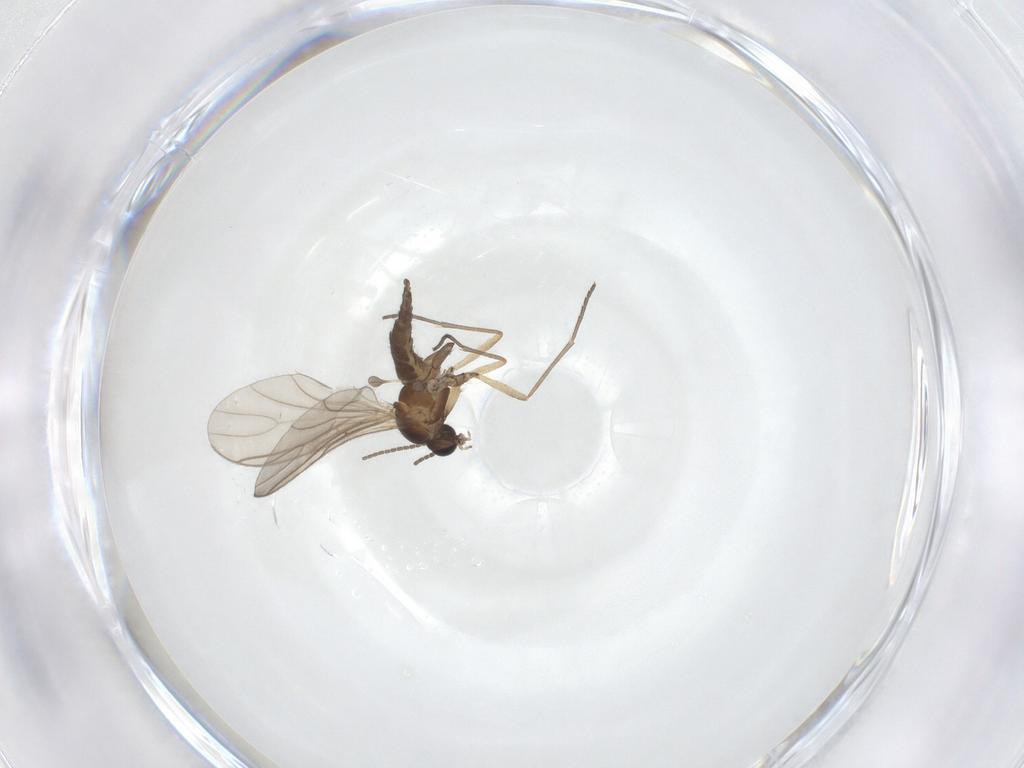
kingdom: Animalia
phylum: Arthropoda
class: Insecta
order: Diptera
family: Sciaridae
